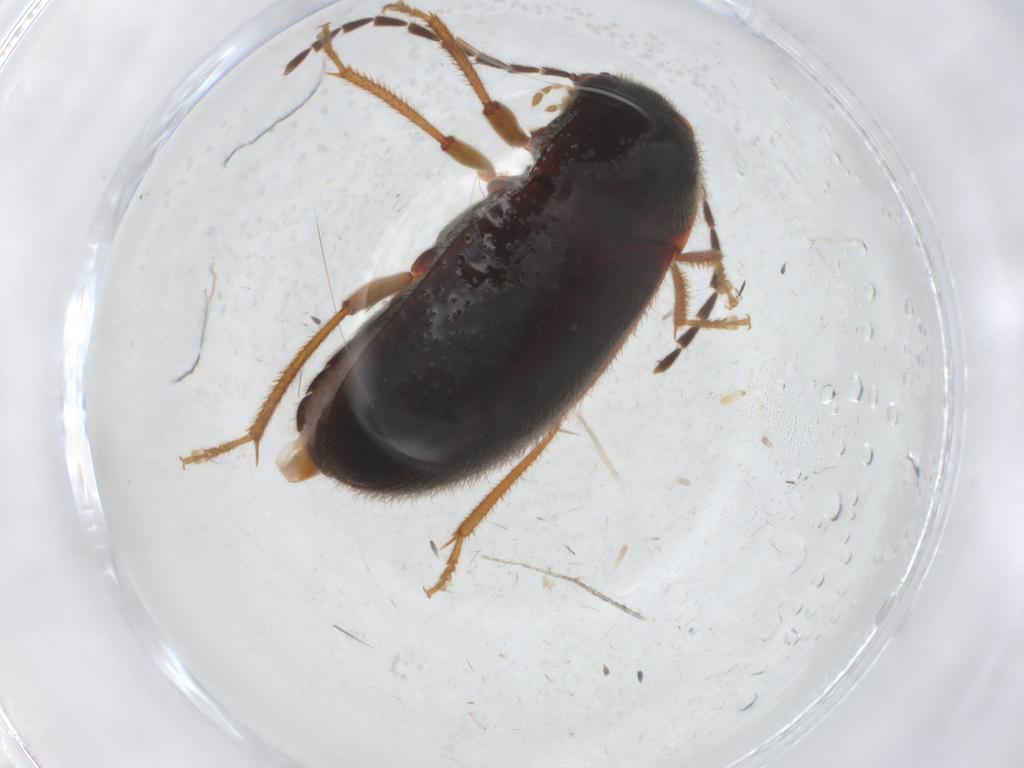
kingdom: Animalia
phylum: Arthropoda
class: Insecta
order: Coleoptera
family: Ptilodactylidae
